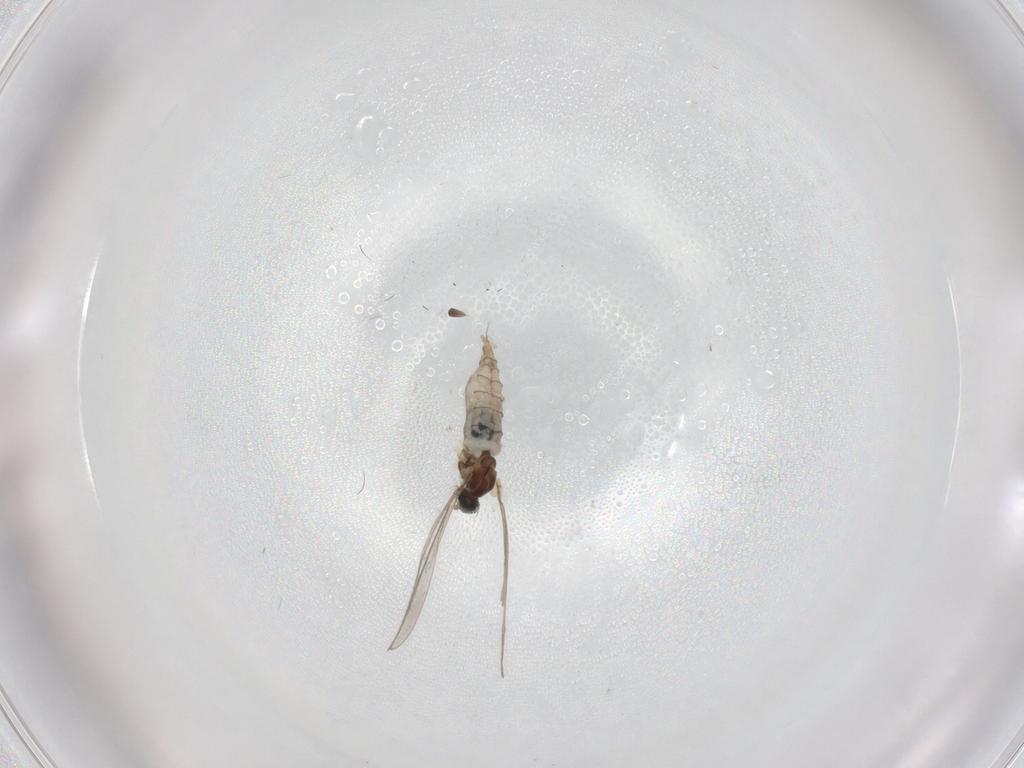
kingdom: Animalia
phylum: Arthropoda
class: Insecta
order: Diptera
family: Cecidomyiidae
